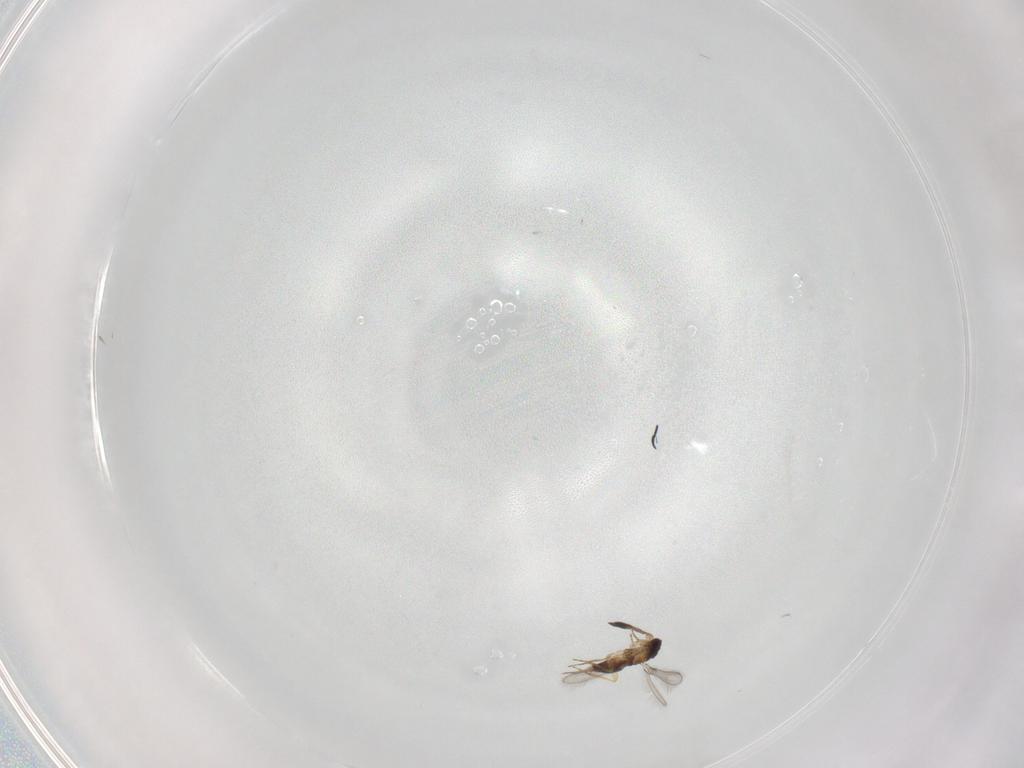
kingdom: Animalia
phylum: Arthropoda
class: Insecta
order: Hymenoptera
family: Mymaridae
